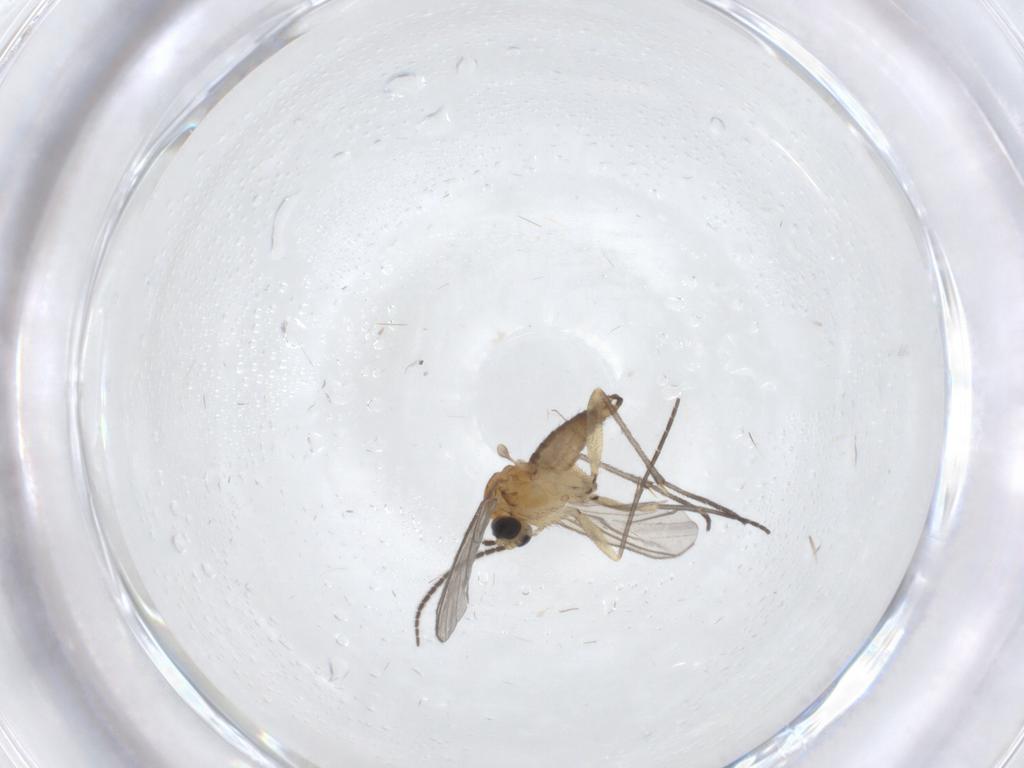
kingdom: Animalia
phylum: Arthropoda
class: Insecta
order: Diptera
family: Sciaridae
